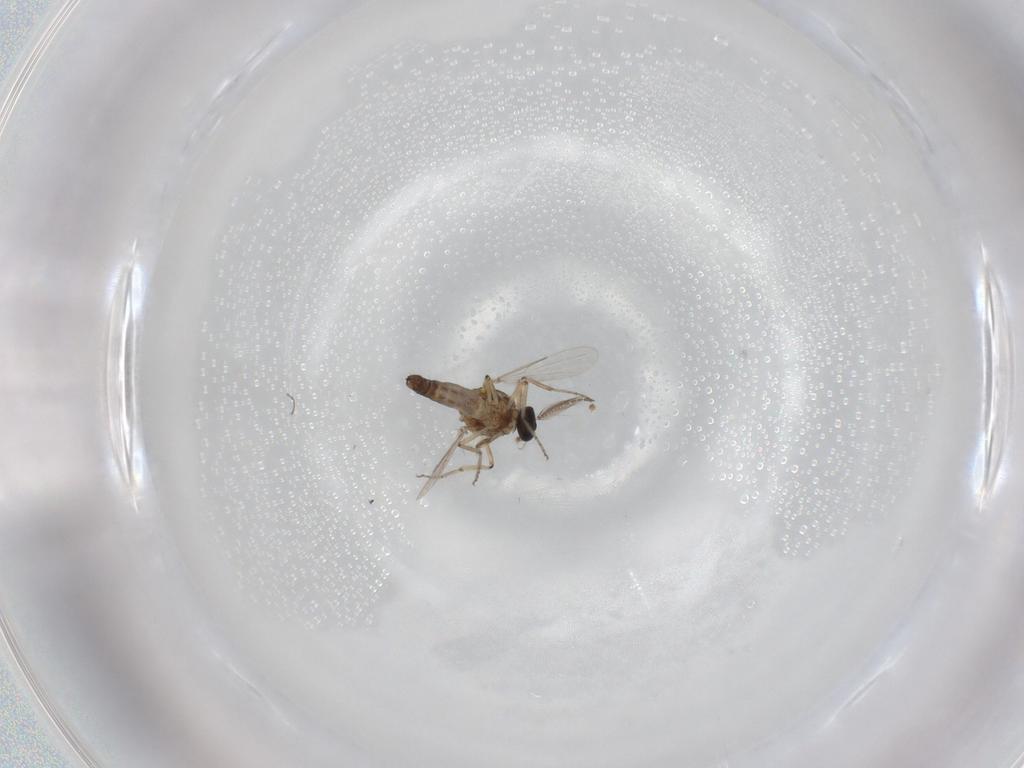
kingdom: Animalia
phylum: Arthropoda
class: Insecta
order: Diptera
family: Ceratopogonidae
